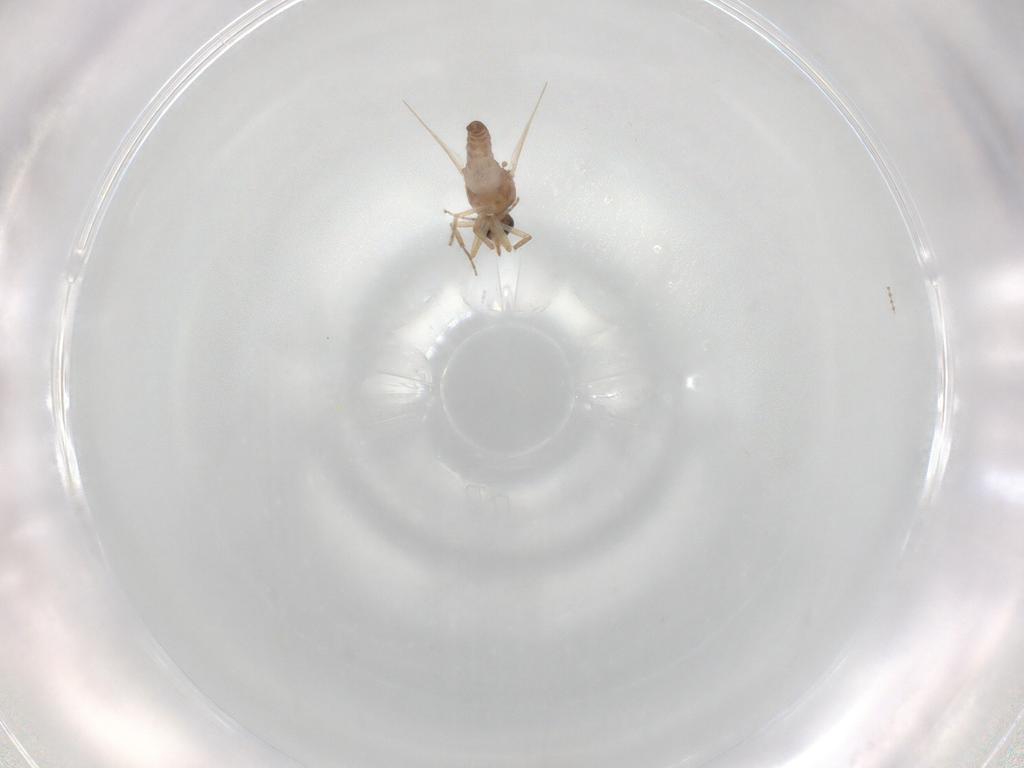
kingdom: Animalia
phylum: Arthropoda
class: Insecta
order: Diptera
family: Ceratopogonidae
